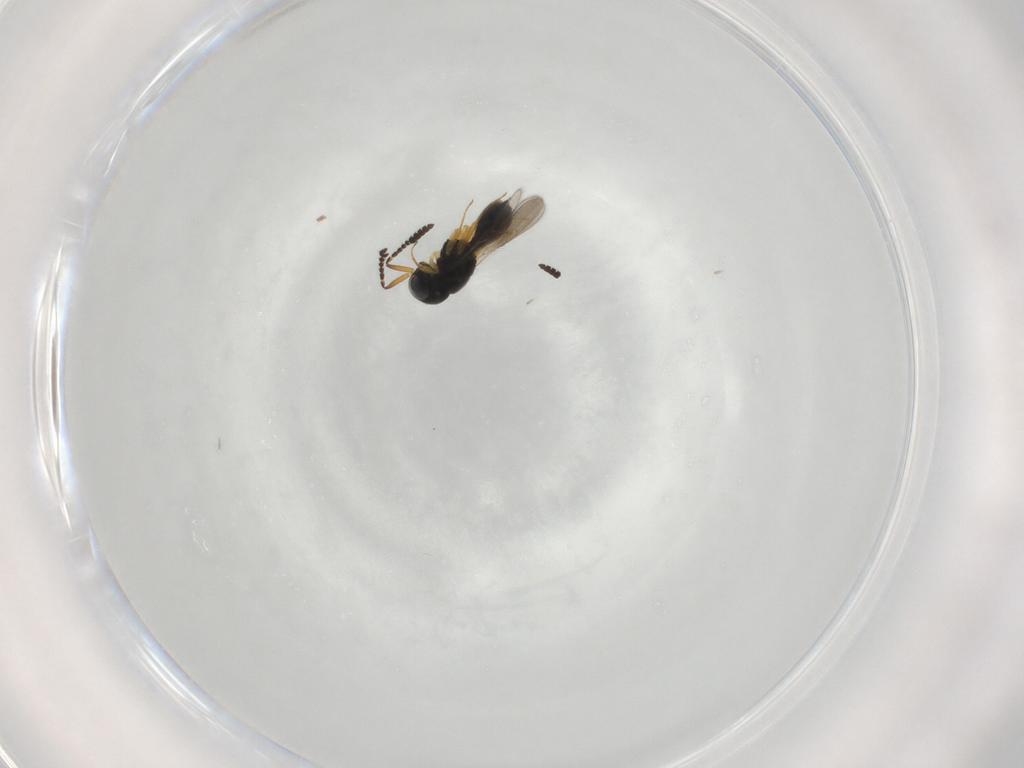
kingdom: Animalia
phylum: Arthropoda
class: Insecta
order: Hymenoptera
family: Scelionidae
